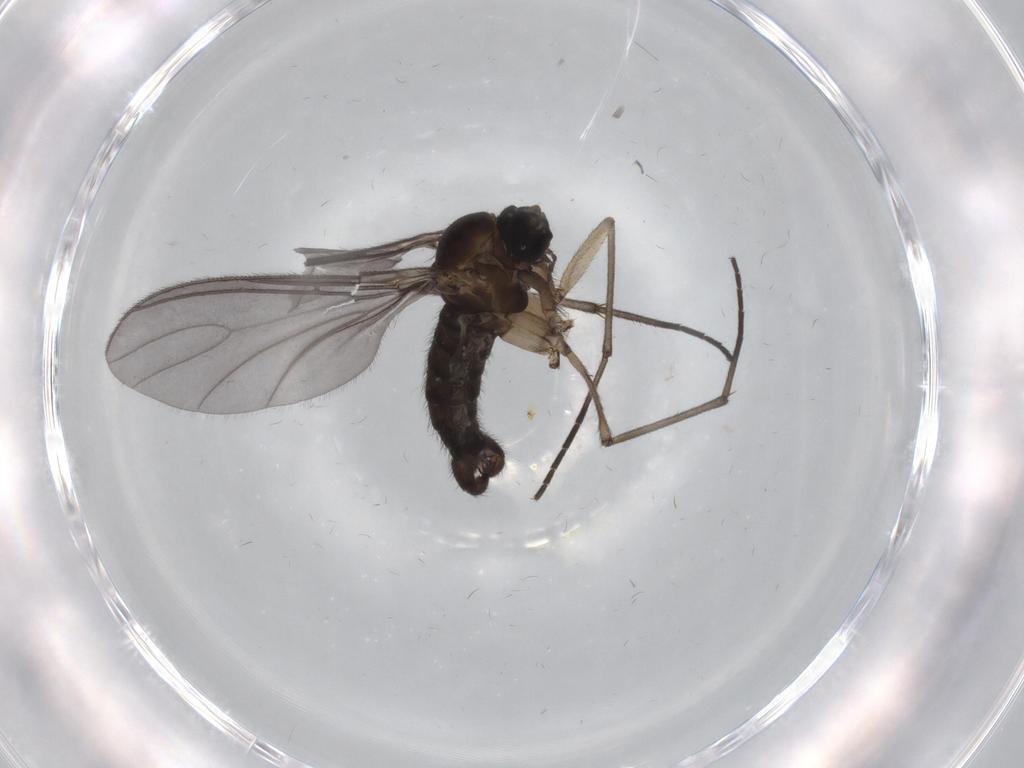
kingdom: Animalia
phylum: Arthropoda
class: Insecta
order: Diptera
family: Sciaridae
